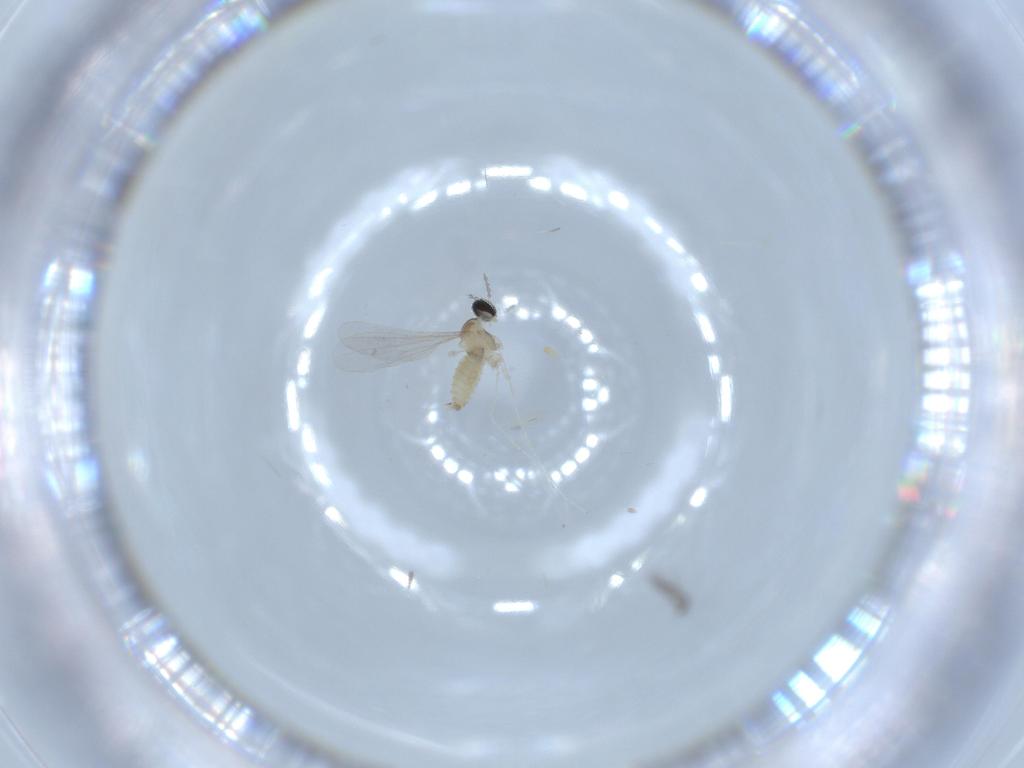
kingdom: Animalia
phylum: Arthropoda
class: Insecta
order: Diptera
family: Cecidomyiidae
